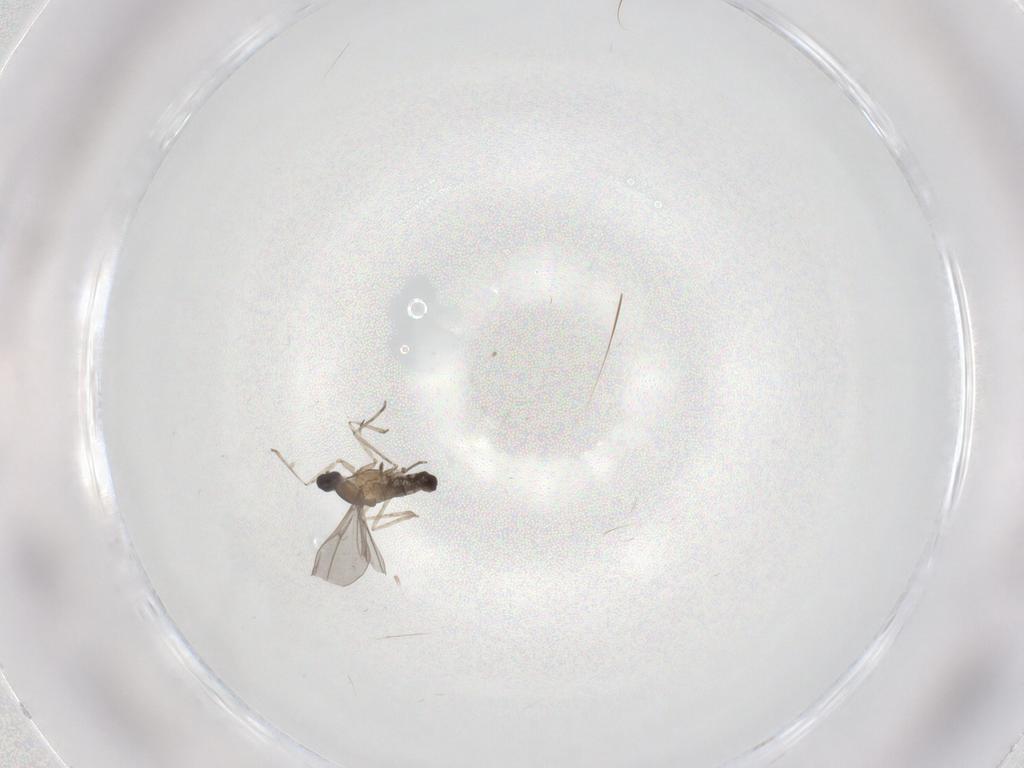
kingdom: Animalia
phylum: Arthropoda
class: Insecta
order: Diptera
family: Cecidomyiidae
